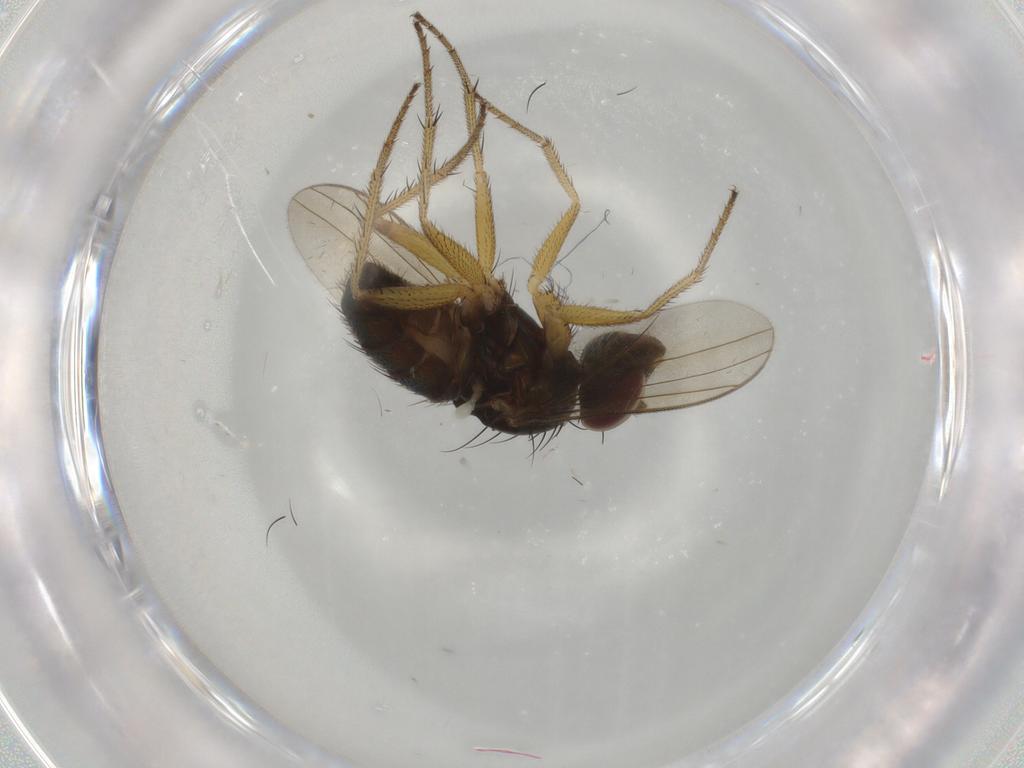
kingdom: Animalia
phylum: Arthropoda
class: Insecta
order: Diptera
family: Dolichopodidae
